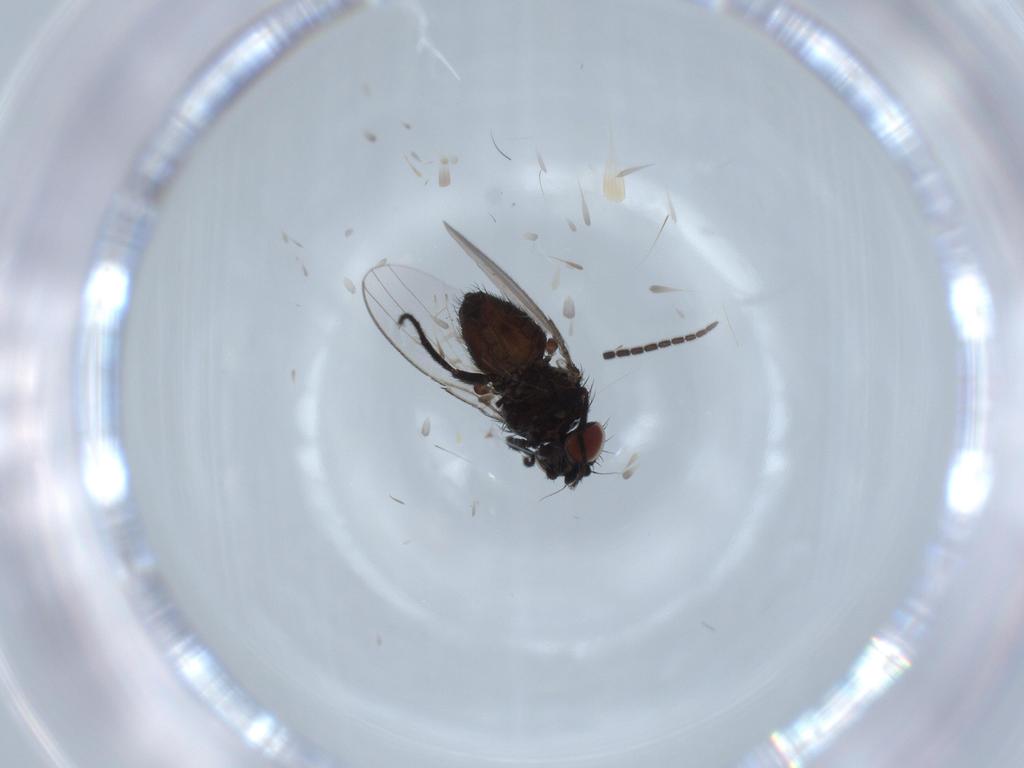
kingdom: Animalia
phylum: Arthropoda
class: Insecta
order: Diptera
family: Milichiidae
